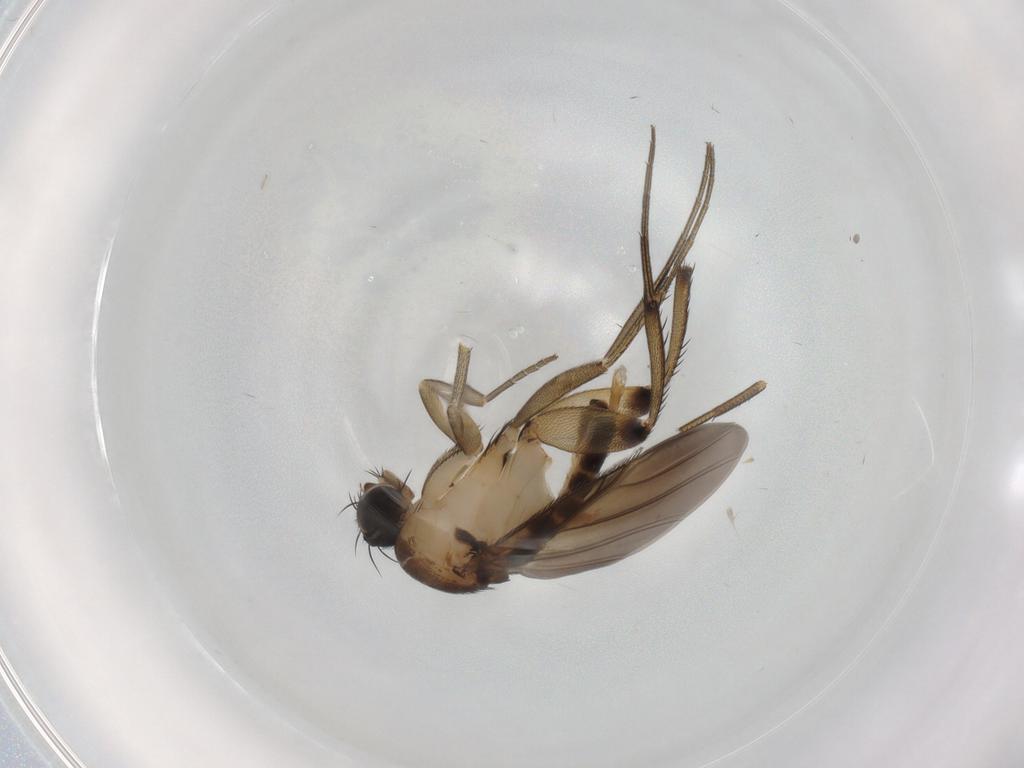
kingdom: Animalia
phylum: Arthropoda
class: Insecta
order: Diptera
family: Phoridae
